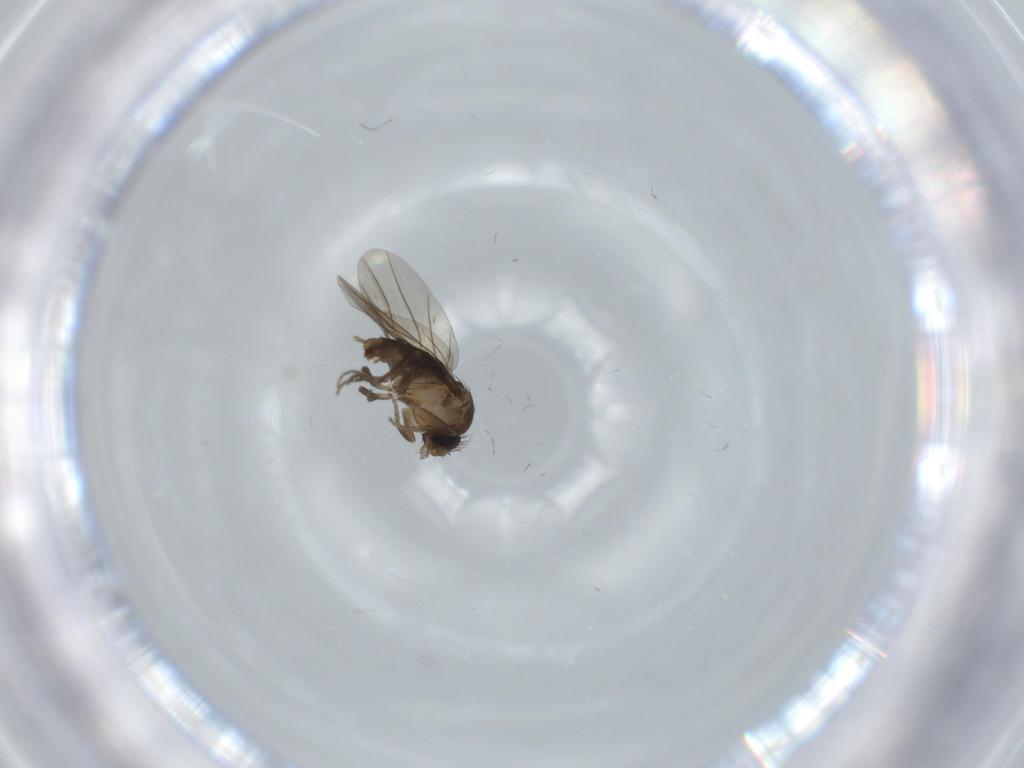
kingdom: Animalia
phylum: Arthropoda
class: Insecta
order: Diptera
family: Phoridae
